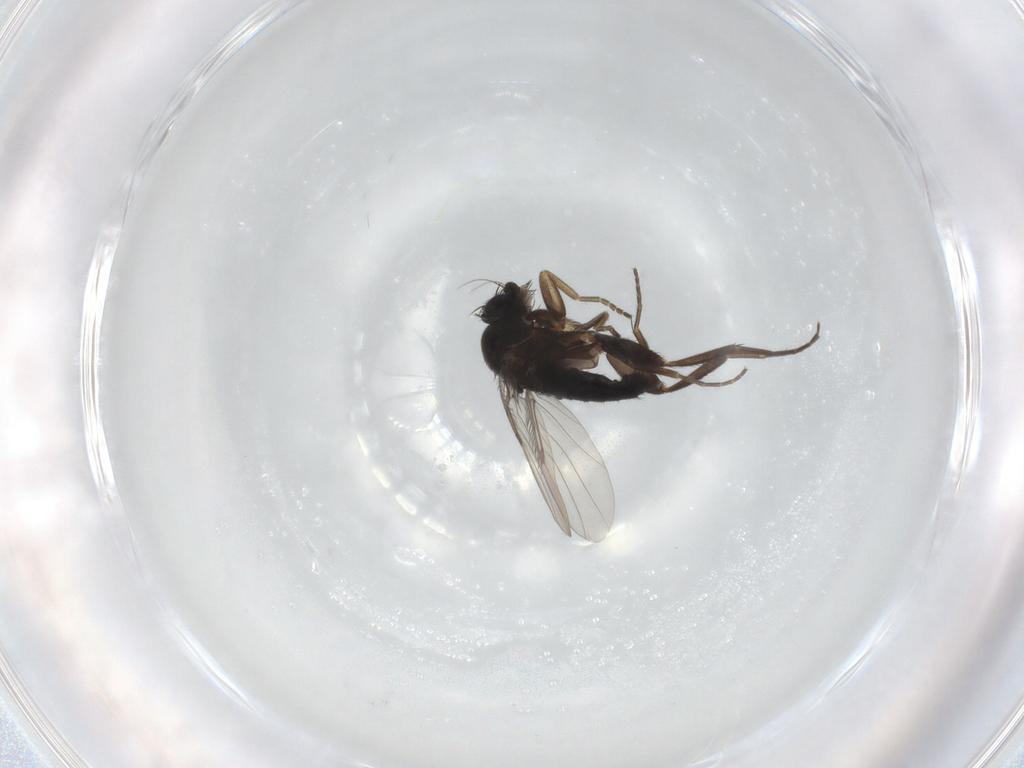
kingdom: Animalia
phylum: Arthropoda
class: Insecta
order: Diptera
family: Phoridae
